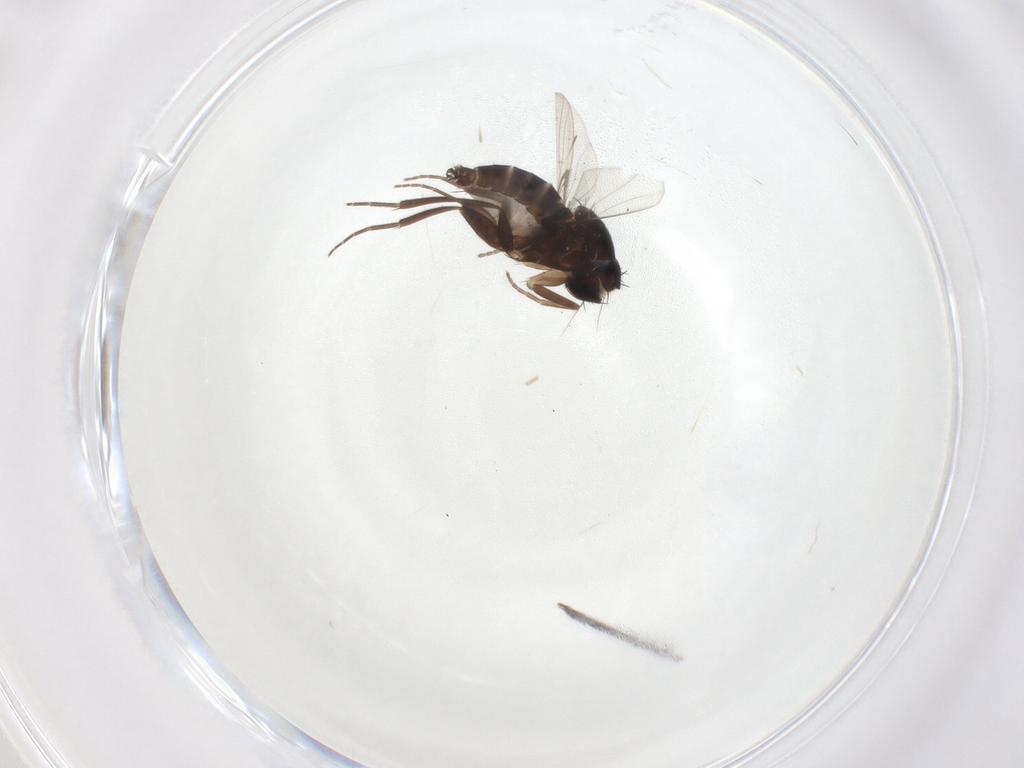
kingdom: Animalia
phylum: Arthropoda
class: Insecta
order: Diptera
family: Phoridae
